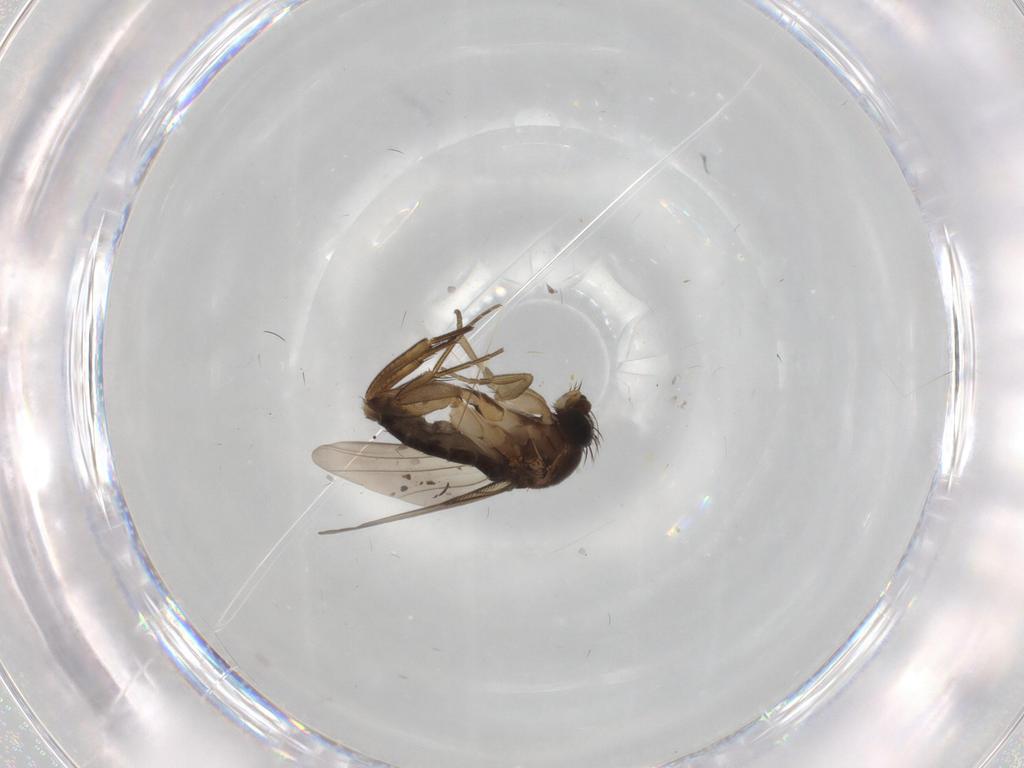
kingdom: Animalia
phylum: Arthropoda
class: Insecta
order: Diptera
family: Phoridae
